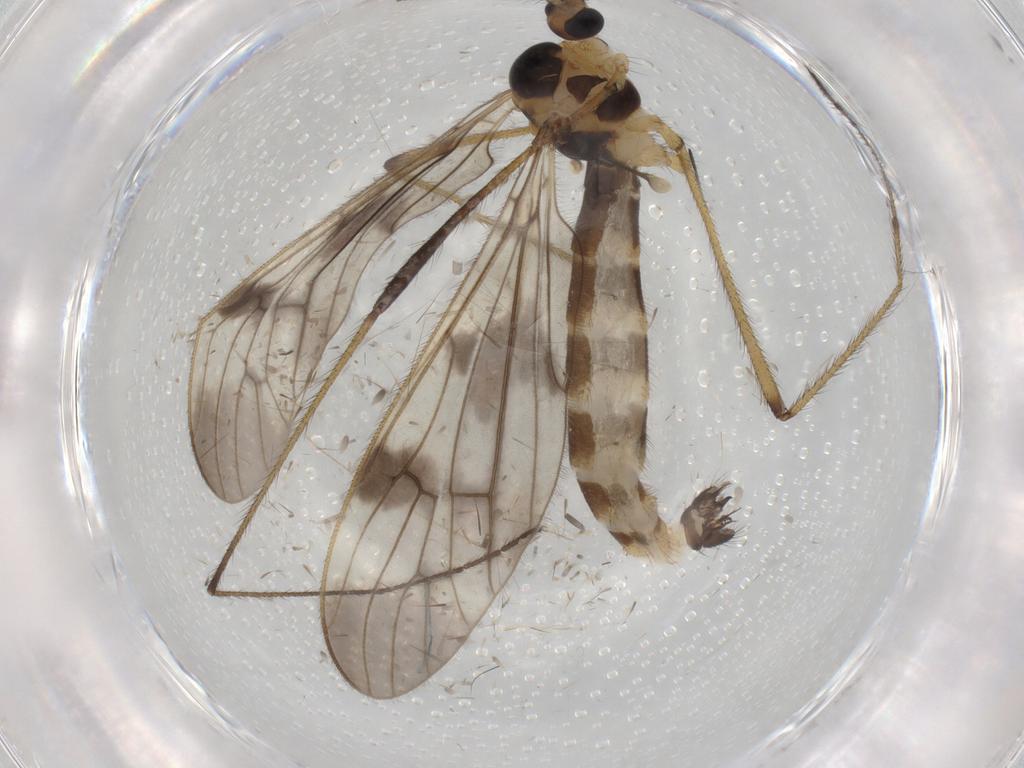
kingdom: Animalia
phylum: Arthropoda
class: Insecta
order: Diptera
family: Limoniidae
